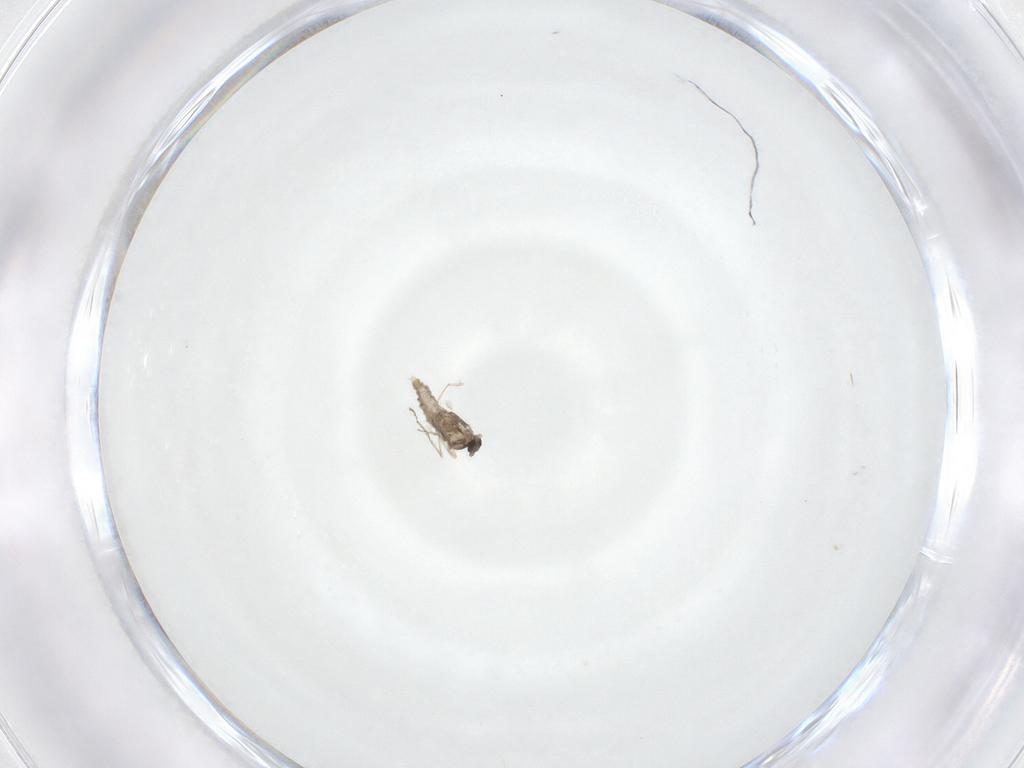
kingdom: Animalia
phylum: Arthropoda
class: Insecta
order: Diptera
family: Cecidomyiidae
